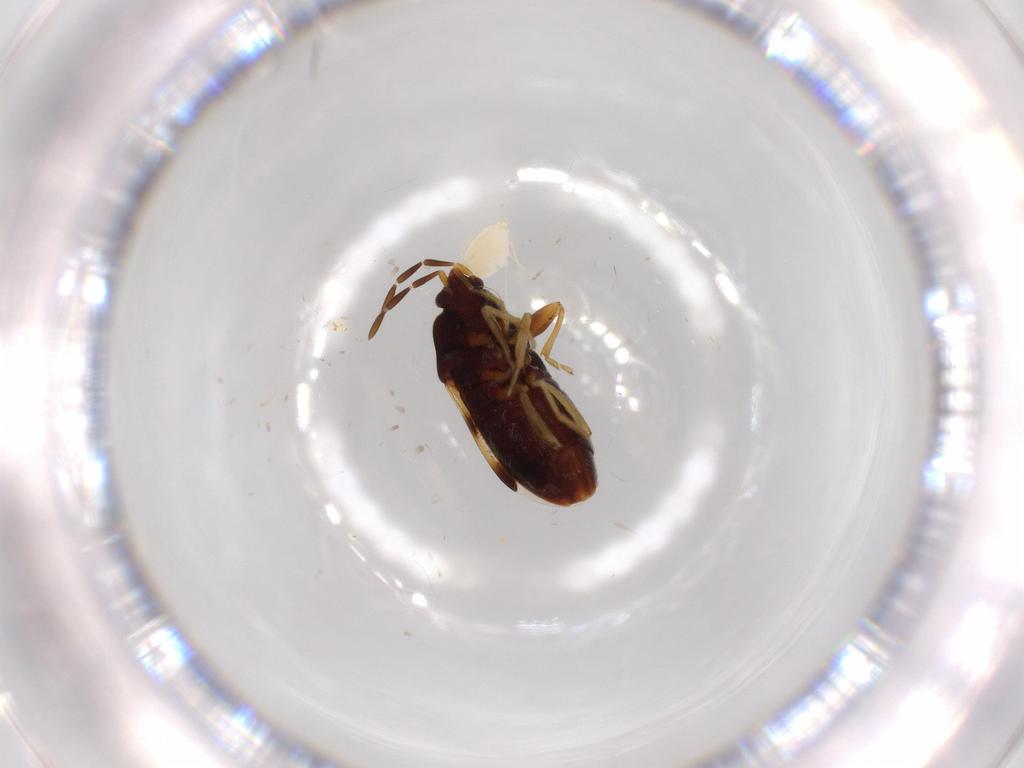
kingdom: Animalia
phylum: Arthropoda
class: Insecta
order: Hemiptera
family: Rhyparochromidae
